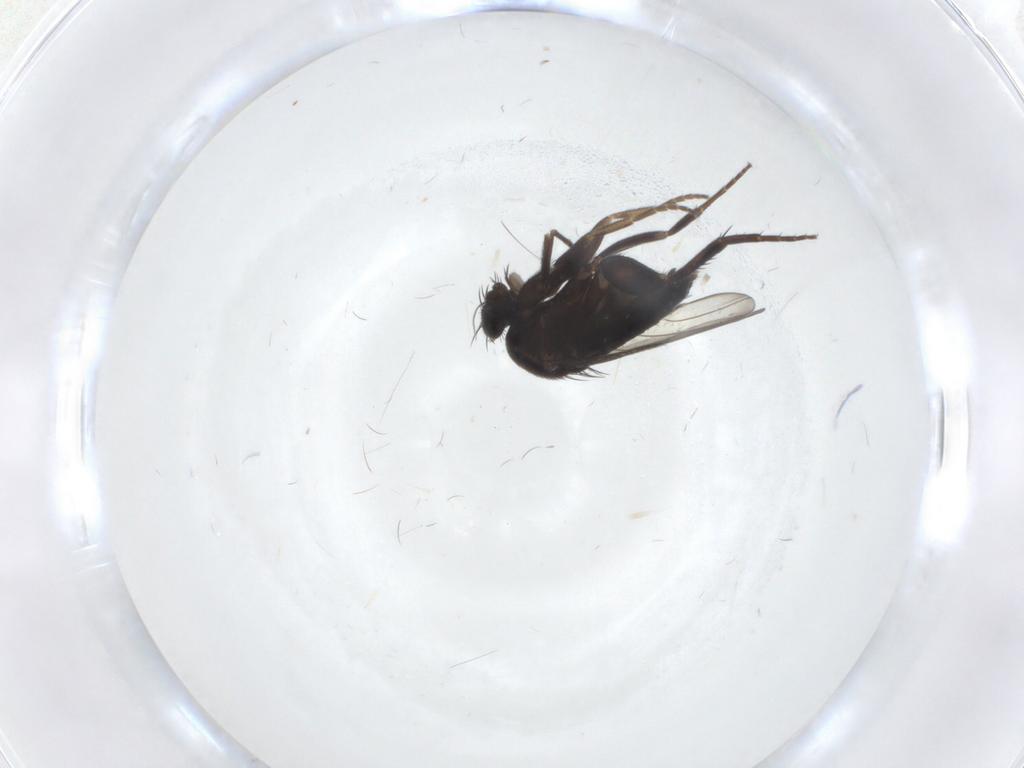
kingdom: Animalia
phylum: Arthropoda
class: Insecta
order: Diptera
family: Phoridae
